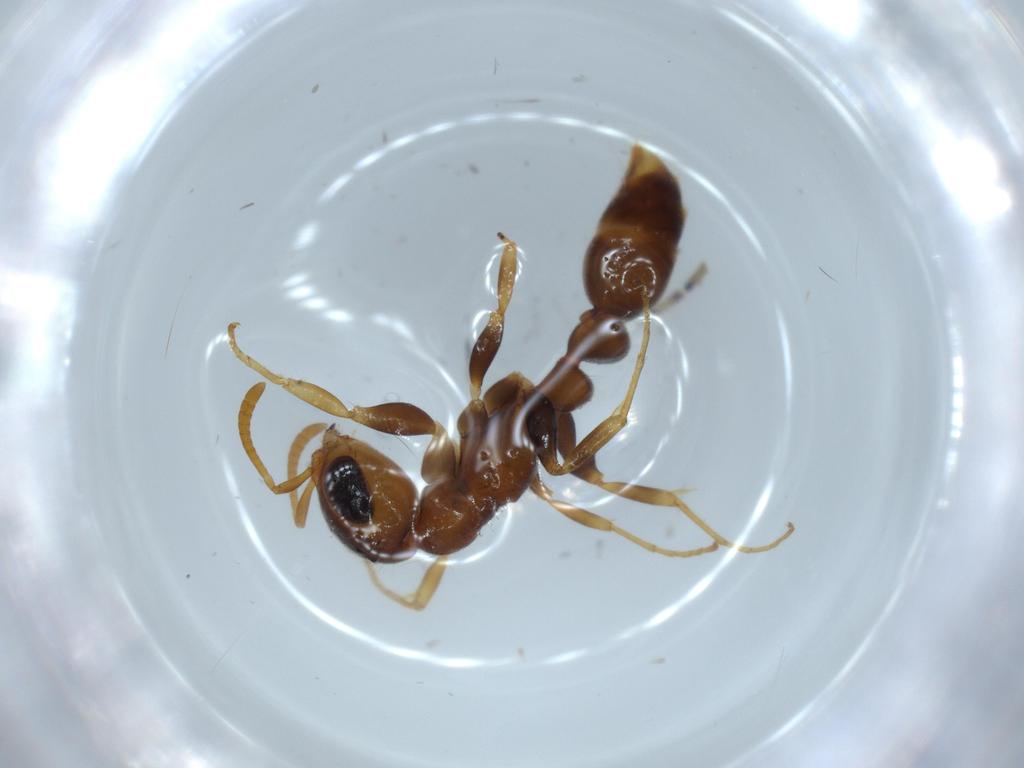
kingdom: Animalia
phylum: Arthropoda
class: Insecta
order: Hymenoptera
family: Formicidae
